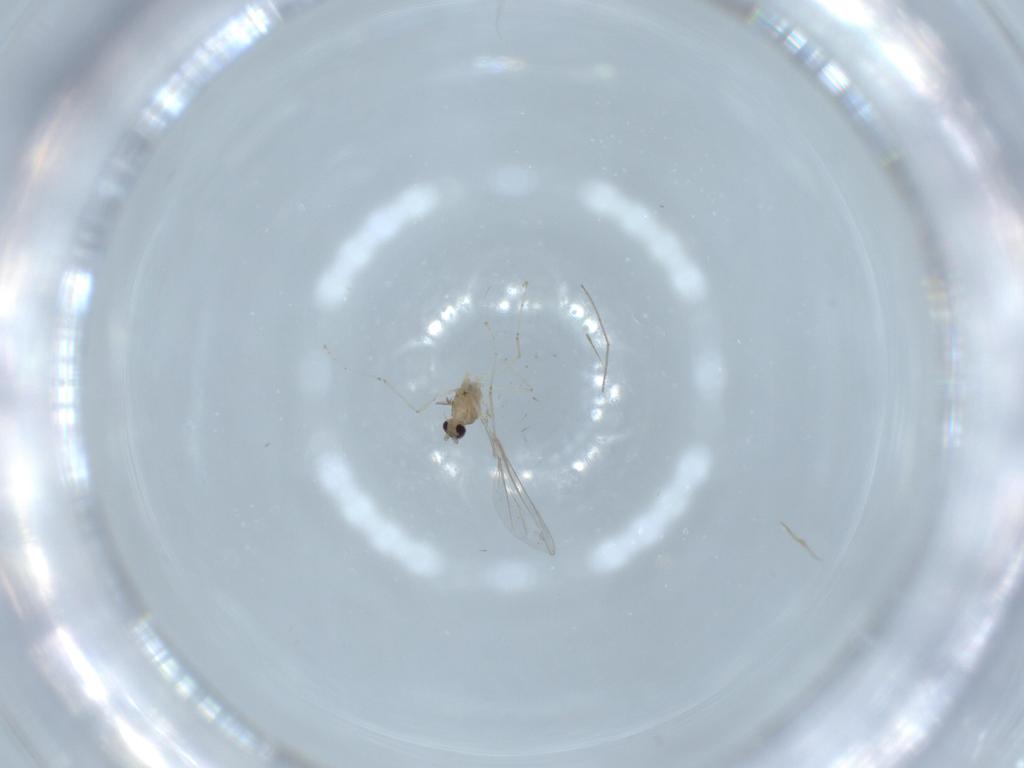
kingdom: Animalia
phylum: Arthropoda
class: Insecta
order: Diptera
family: Cecidomyiidae
